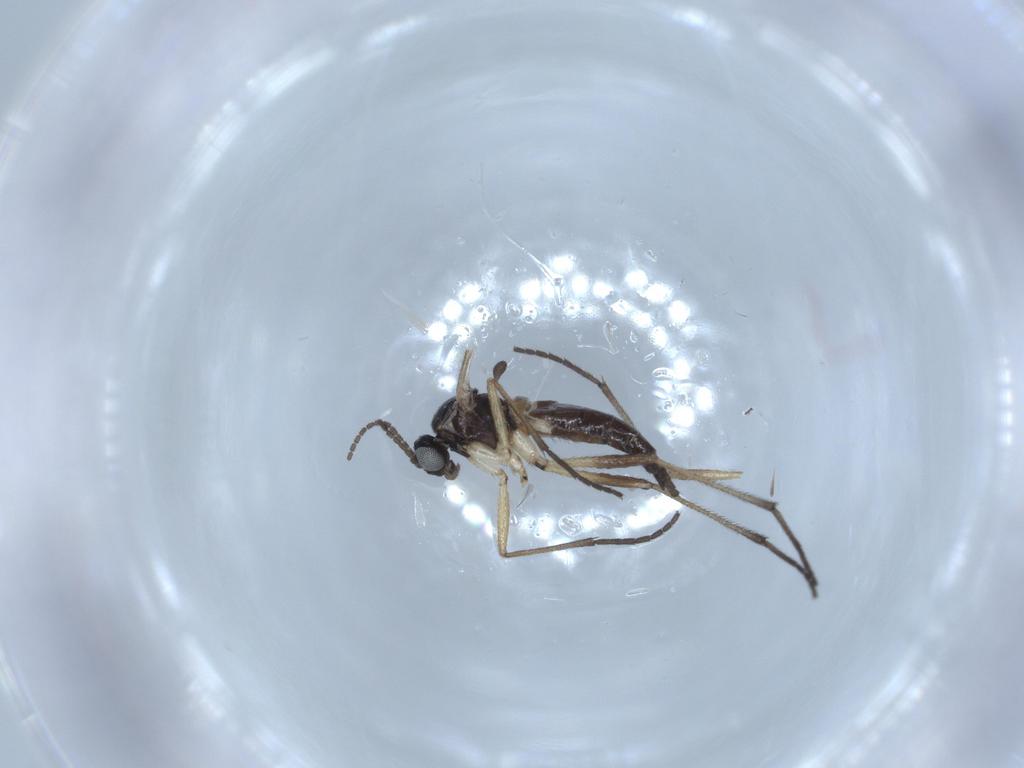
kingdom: Animalia
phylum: Arthropoda
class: Insecta
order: Diptera
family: Sciaridae
